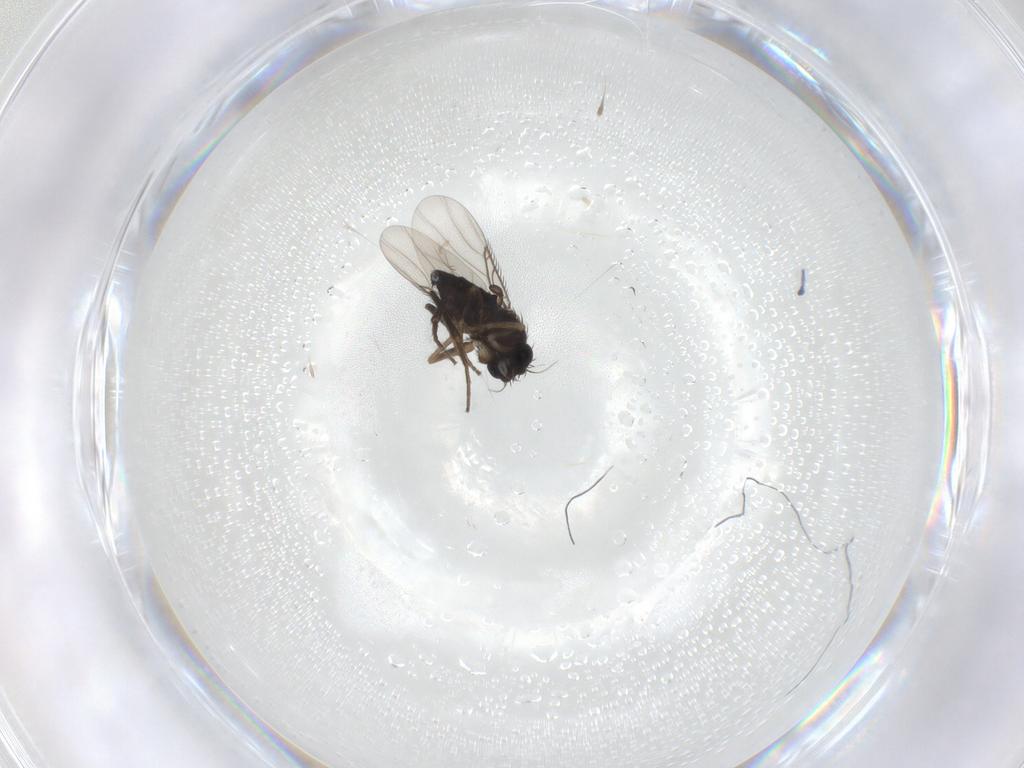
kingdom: Animalia
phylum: Arthropoda
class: Insecta
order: Diptera
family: Phoridae
